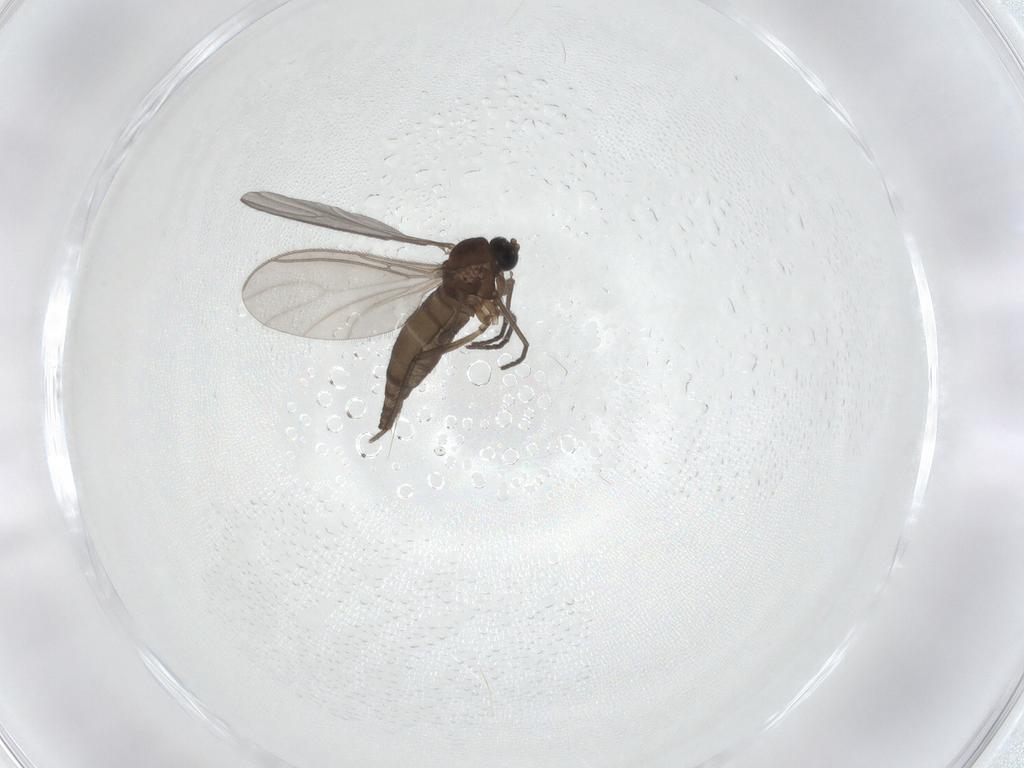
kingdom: Animalia
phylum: Arthropoda
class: Insecta
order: Diptera
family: Sciaridae
